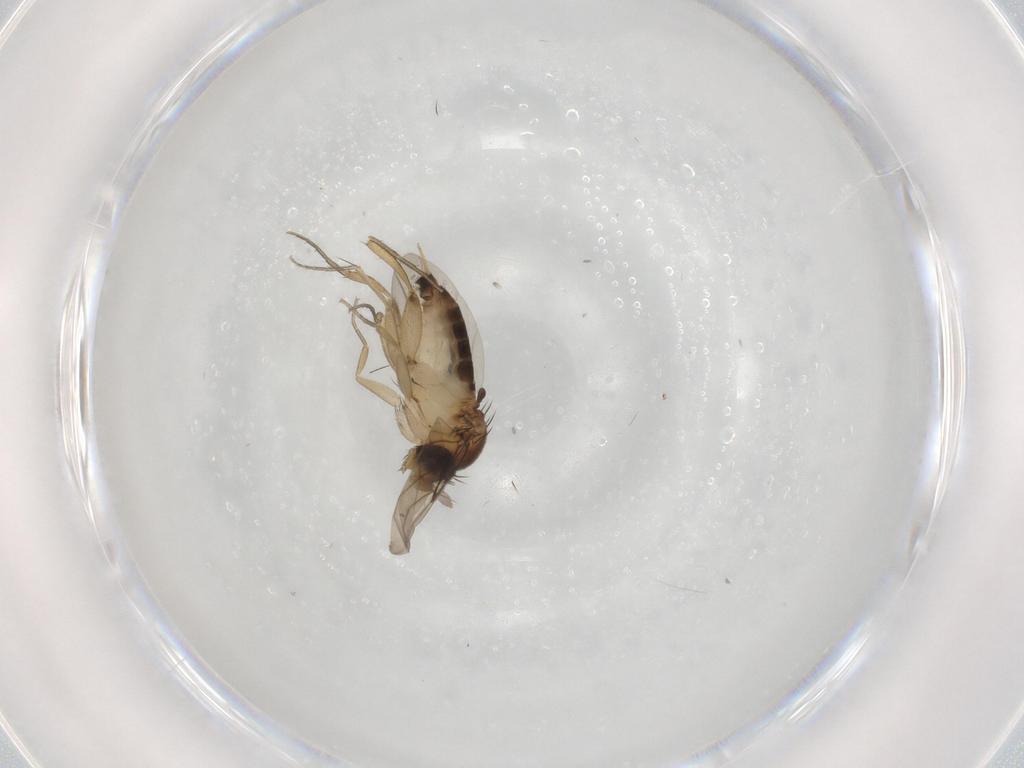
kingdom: Animalia
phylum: Arthropoda
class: Insecta
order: Diptera
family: Phoridae
